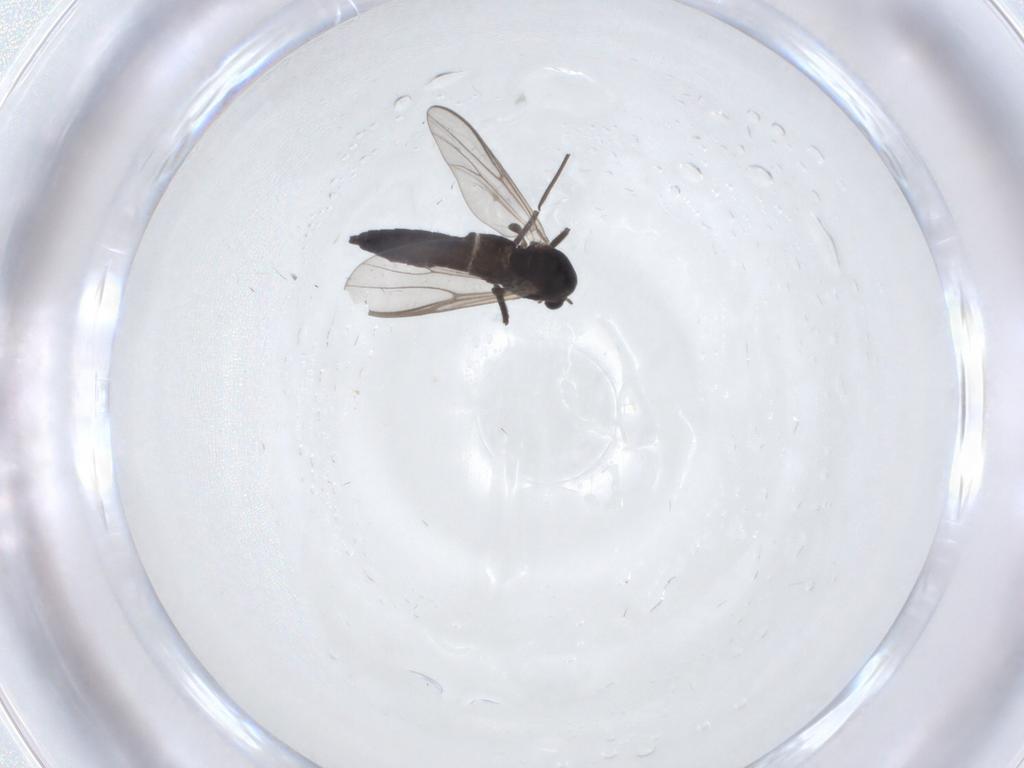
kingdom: Animalia
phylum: Arthropoda
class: Insecta
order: Diptera
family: Chironomidae
